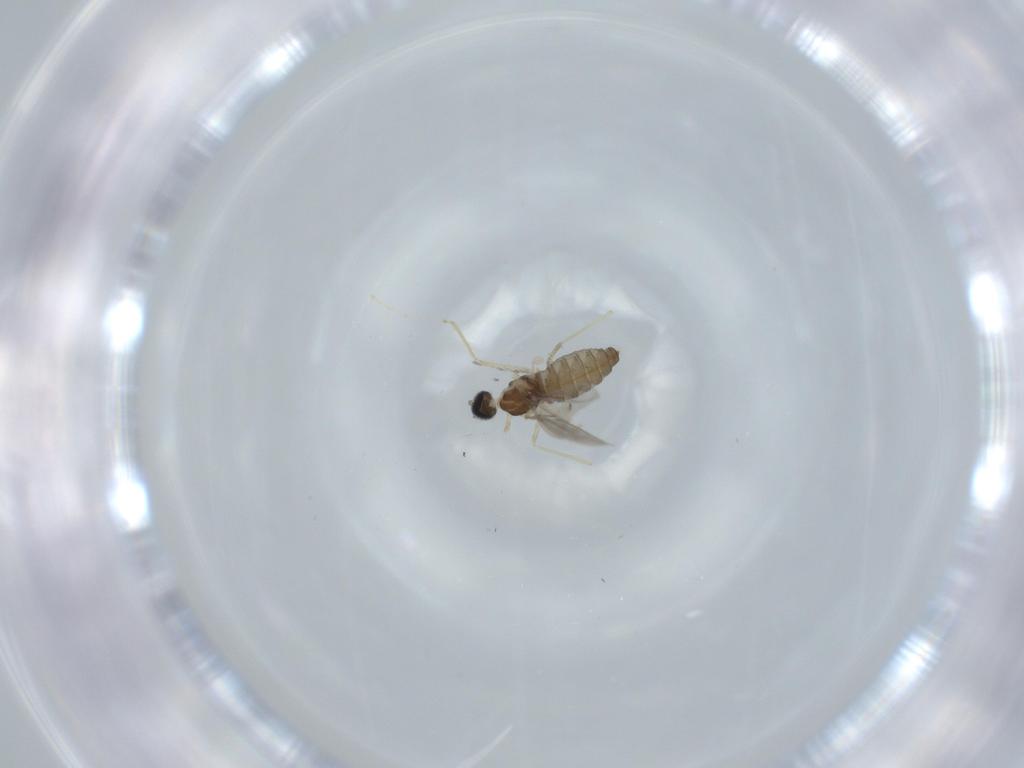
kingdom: Animalia
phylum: Arthropoda
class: Insecta
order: Diptera
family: Cecidomyiidae
